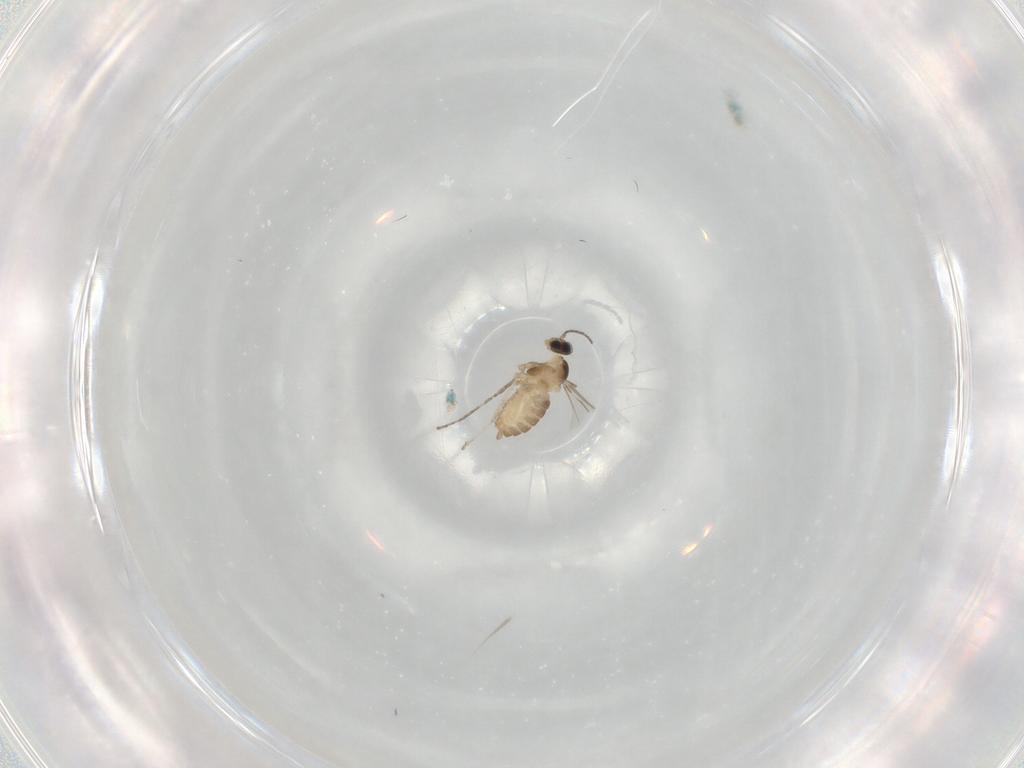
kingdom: Animalia
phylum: Arthropoda
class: Insecta
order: Diptera
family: Cecidomyiidae
